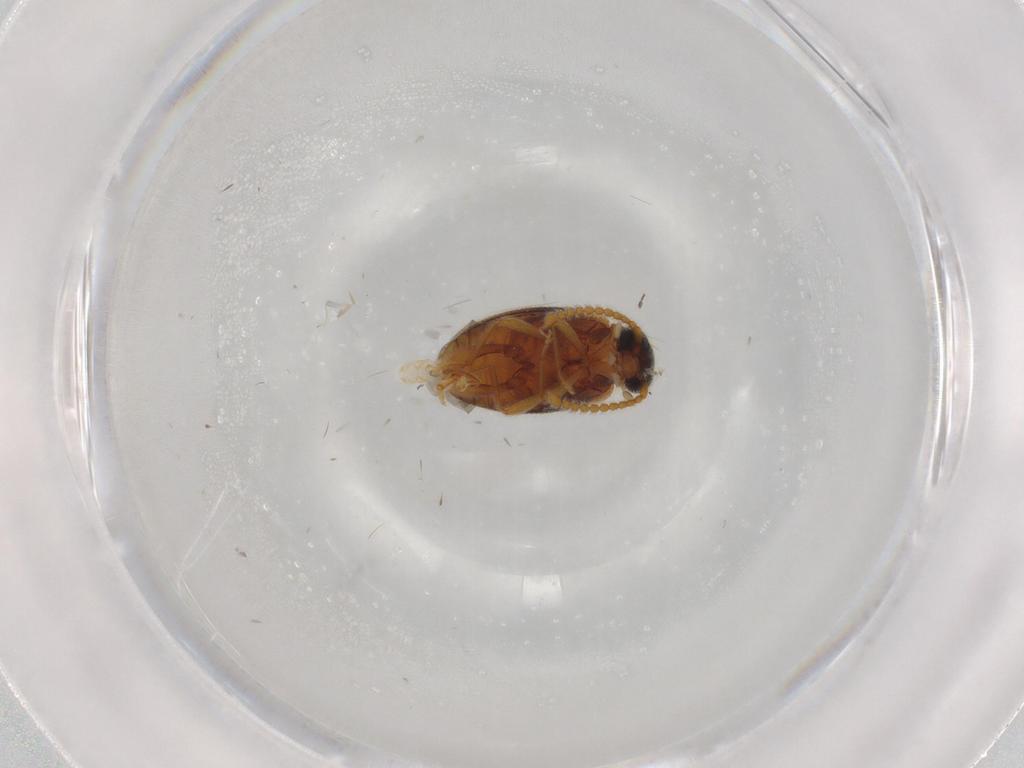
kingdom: Animalia
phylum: Arthropoda
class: Insecta
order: Coleoptera
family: Aderidae
